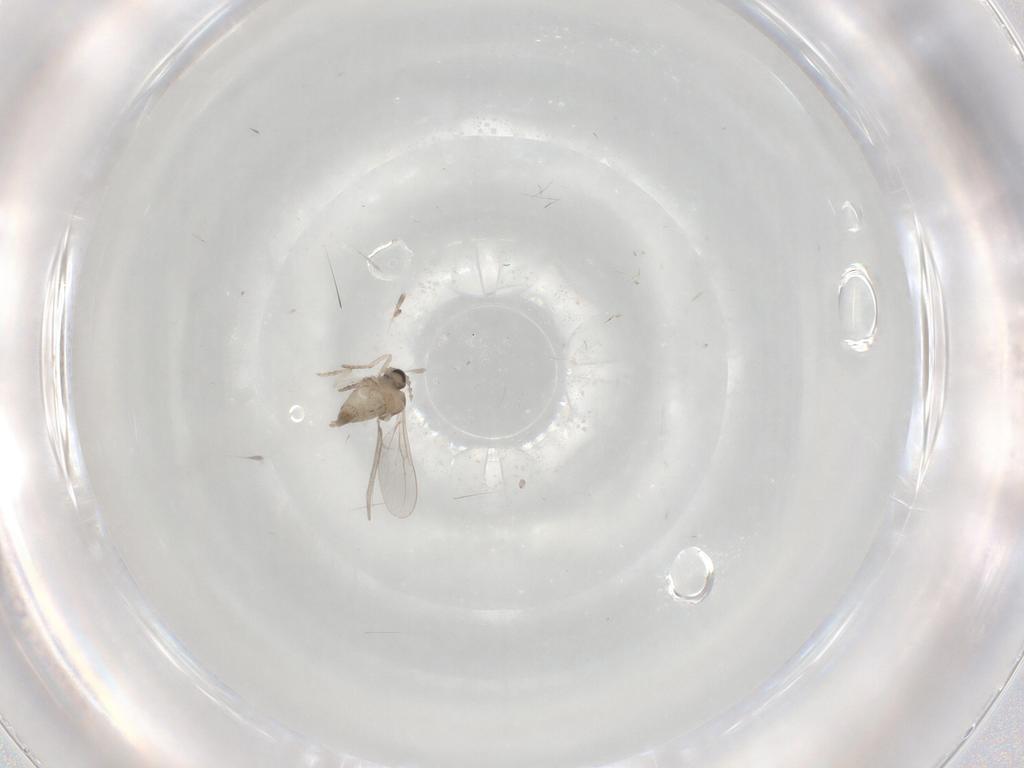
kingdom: Animalia
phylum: Arthropoda
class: Insecta
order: Diptera
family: Cecidomyiidae
